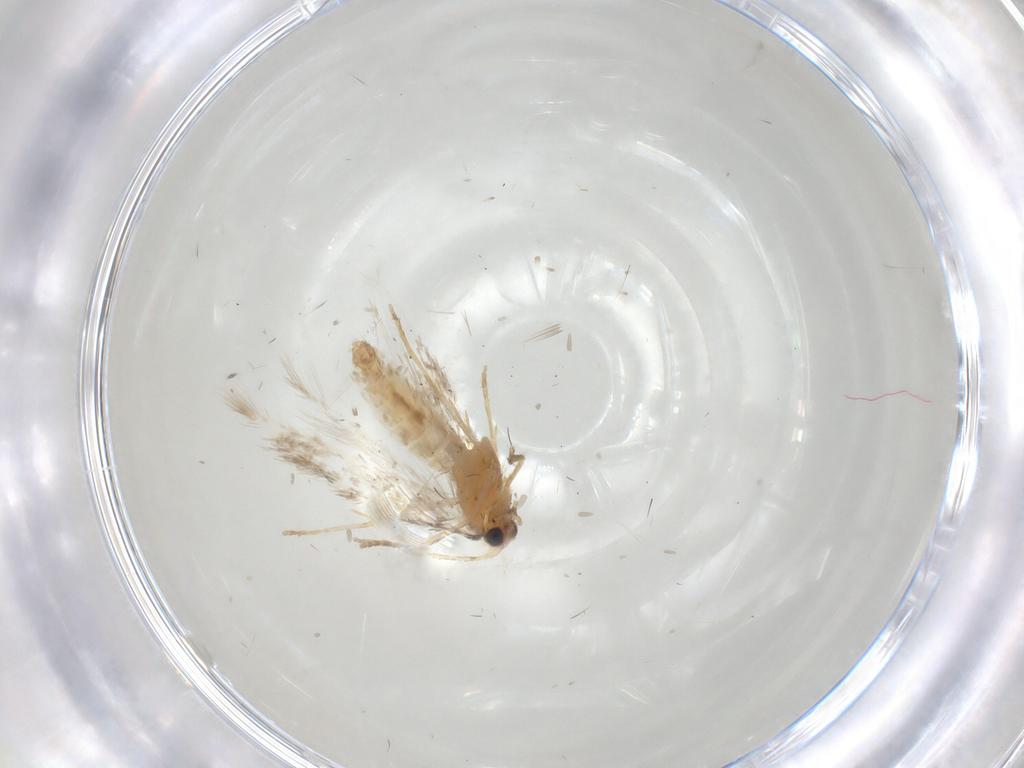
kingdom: Animalia
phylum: Arthropoda
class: Insecta
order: Lepidoptera
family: Nepticulidae
